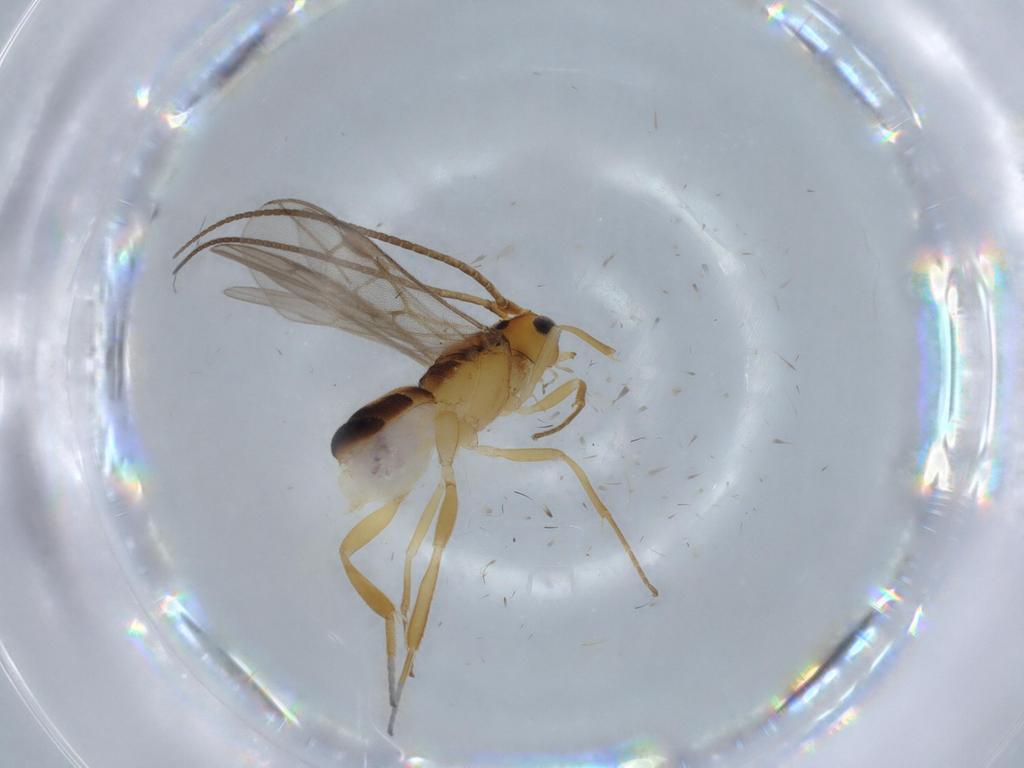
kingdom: Animalia
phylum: Arthropoda
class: Insecta
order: Hymenoptera
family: Braconidae
